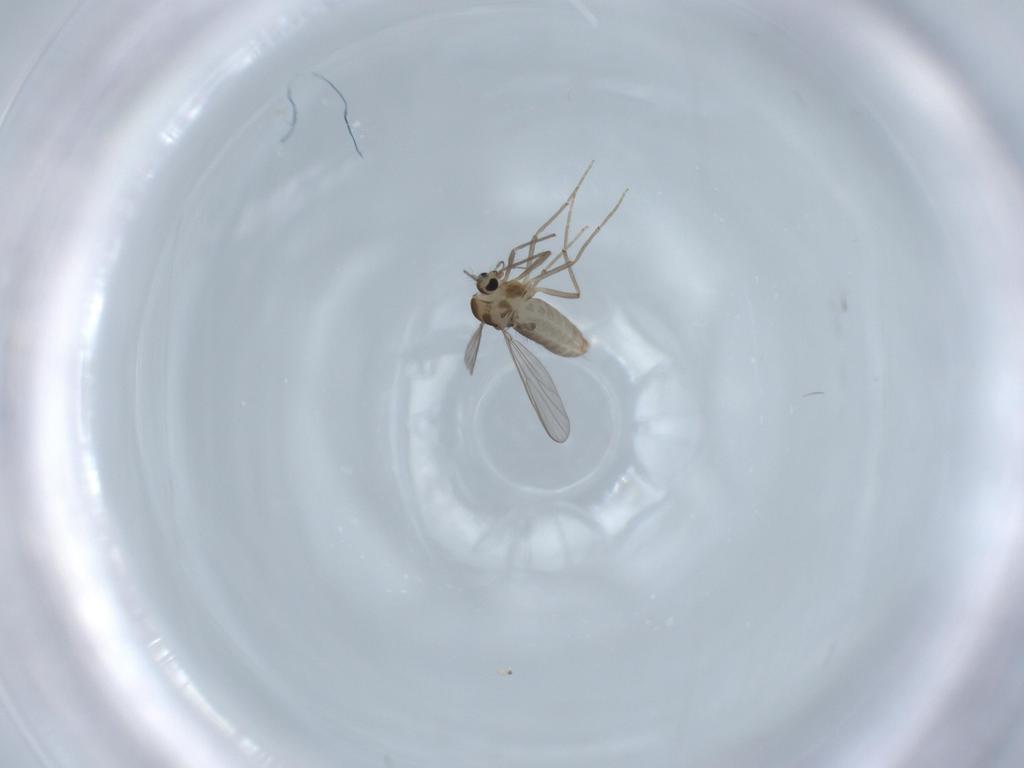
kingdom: Animalia
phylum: Arthropoda
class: Insecta
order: Diptera
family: Chironomidae
